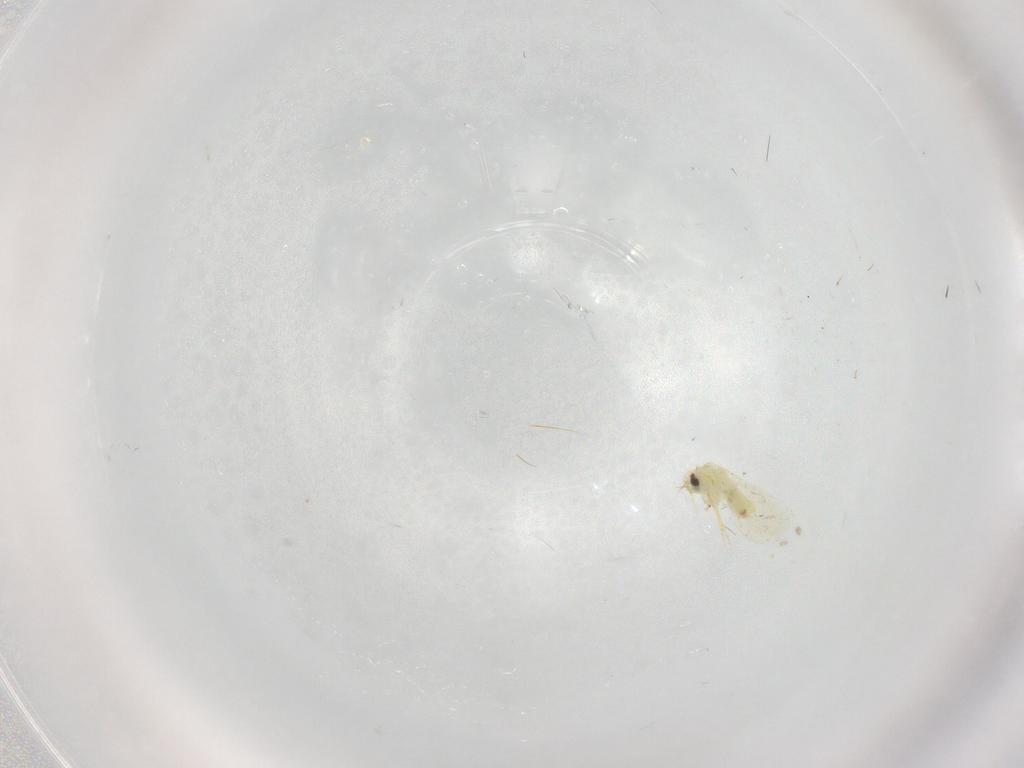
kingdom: Animalia
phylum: Arthropoda
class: Insecta
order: Hemiptera
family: Aleyrodidae
